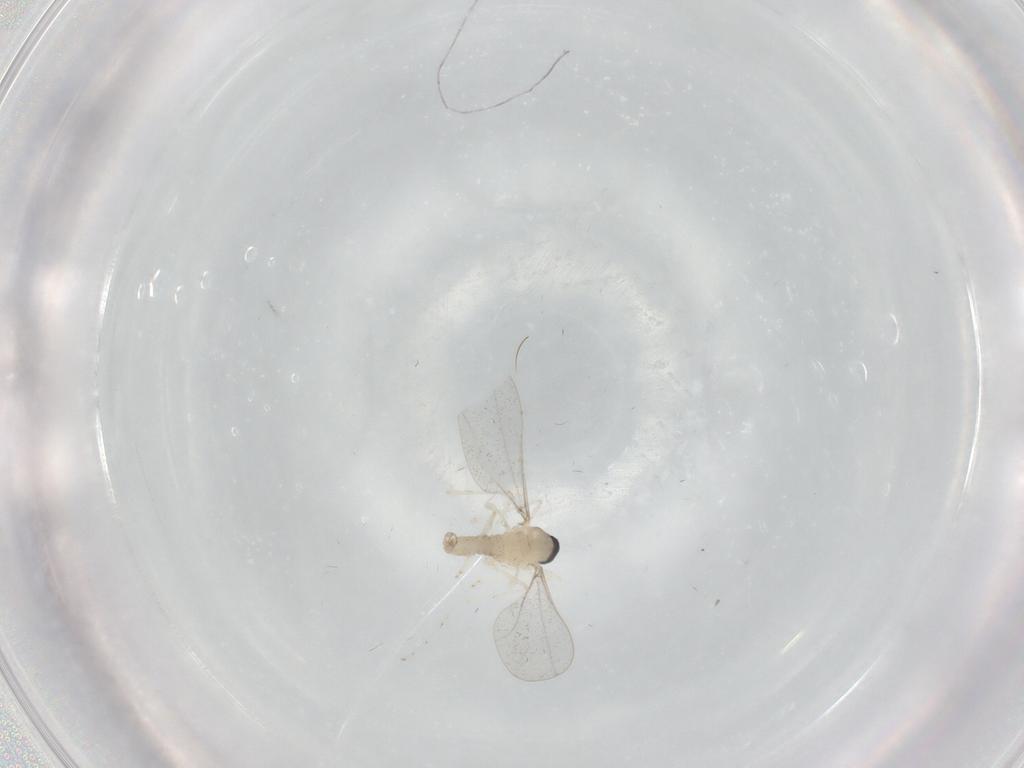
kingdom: Animalia
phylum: Arthropoda
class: Insecta
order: Diptera
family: Cecidomyiidae
